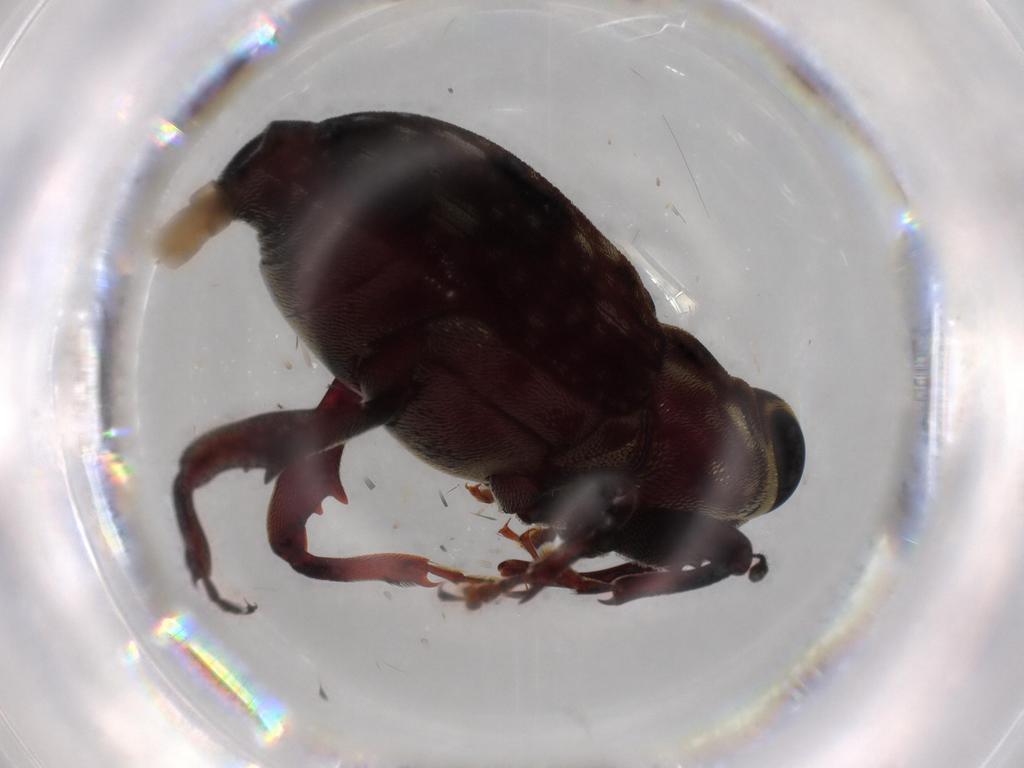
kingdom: Animalia
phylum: Arthropoda
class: Insecta
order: Coleoptera
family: Curculionidae
